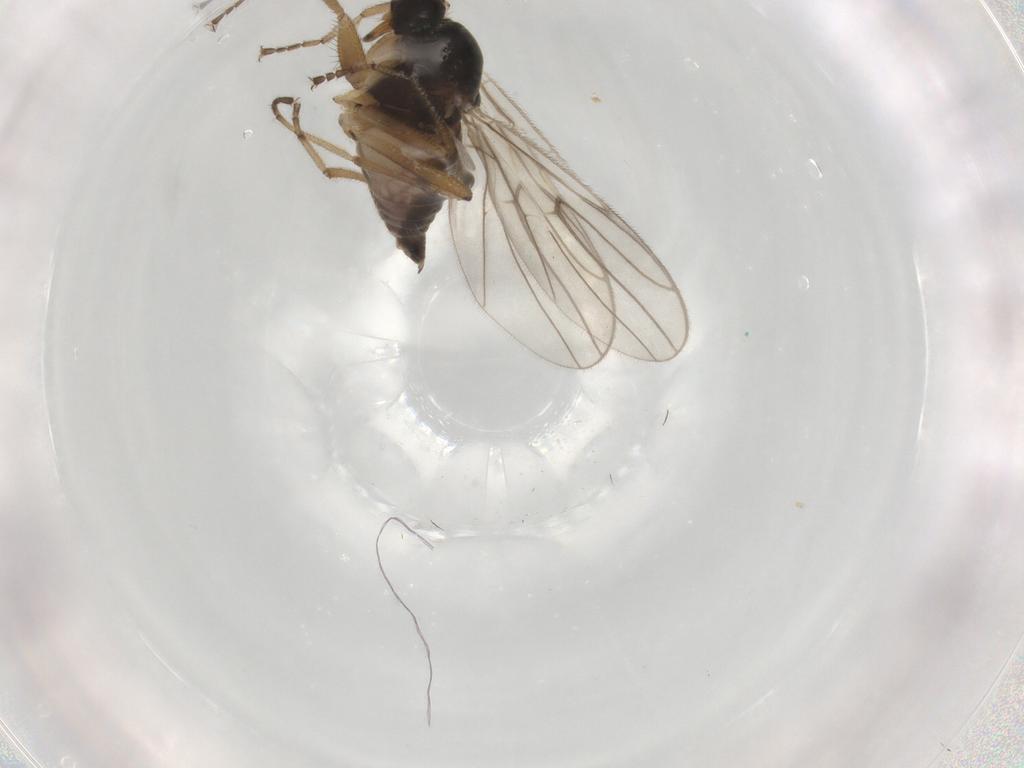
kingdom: Animalia
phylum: Arthropoda
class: Insecta
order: Diptera
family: Hybotidae
